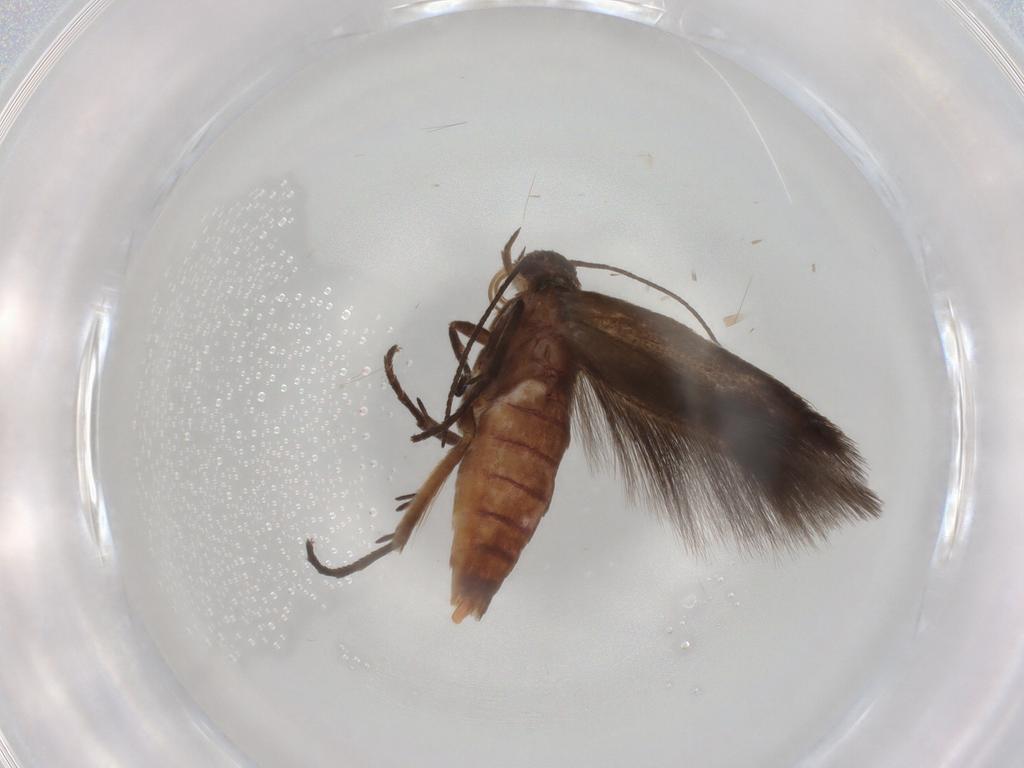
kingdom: Animalia
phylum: Arthropoda
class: Insecta
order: Lepidoptera
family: Scythrididae
